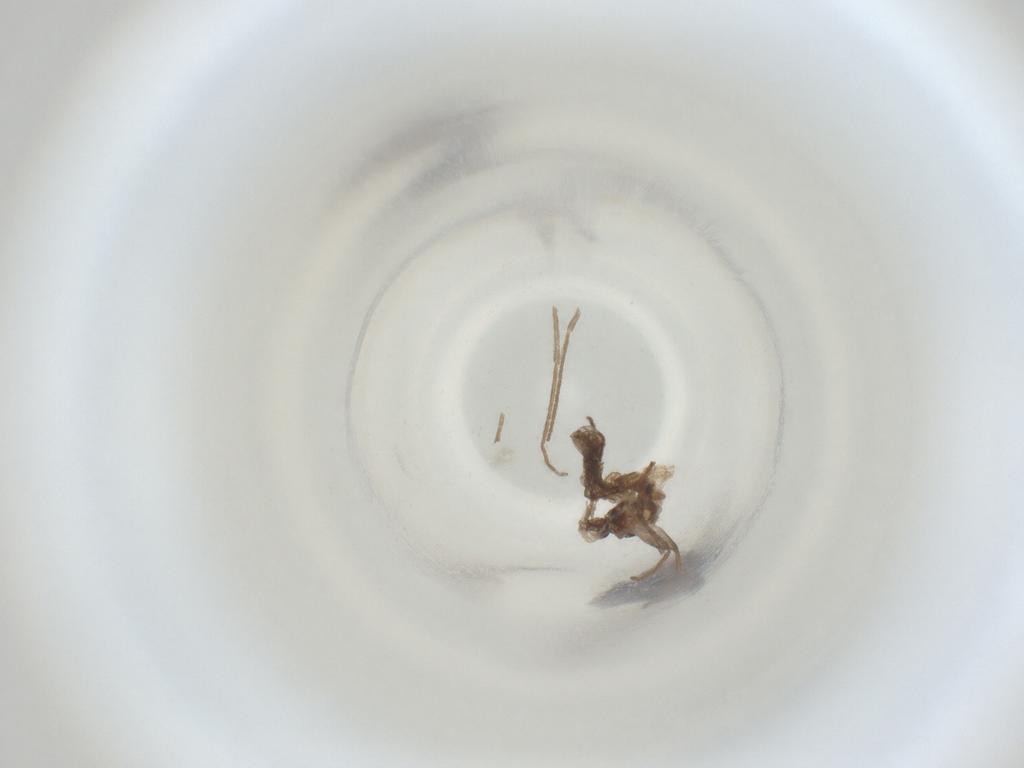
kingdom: Animalia
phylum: Arthropoda
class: Insecta
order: Diptera
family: Cecidomyiidae
